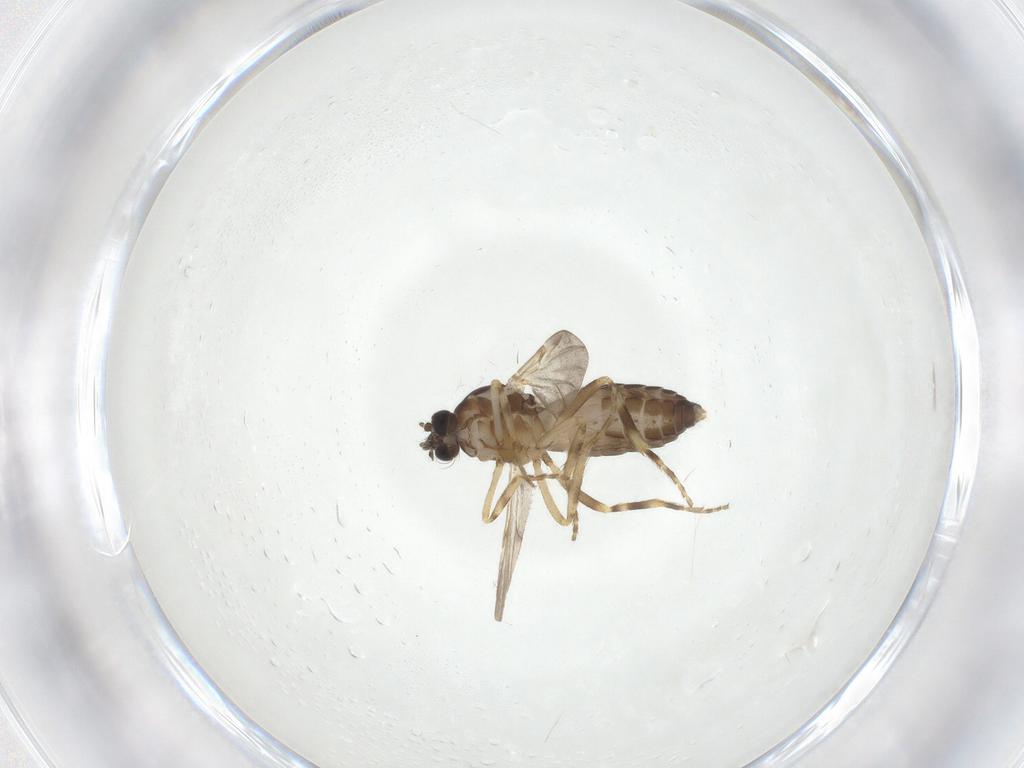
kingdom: Animalia
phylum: Arthropoda
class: Insecta
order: Diptera
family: Ceratopogonidae
